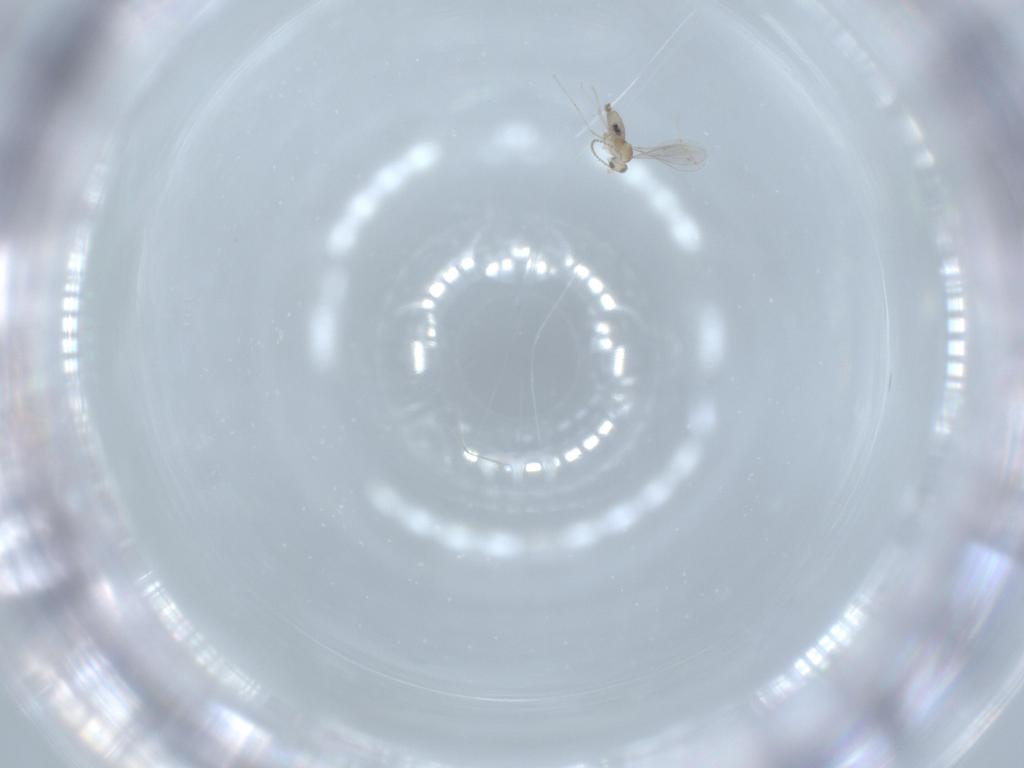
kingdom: Animalia
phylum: Arthropoda
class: Insecta
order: Diptera
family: Cecidomyiidae
